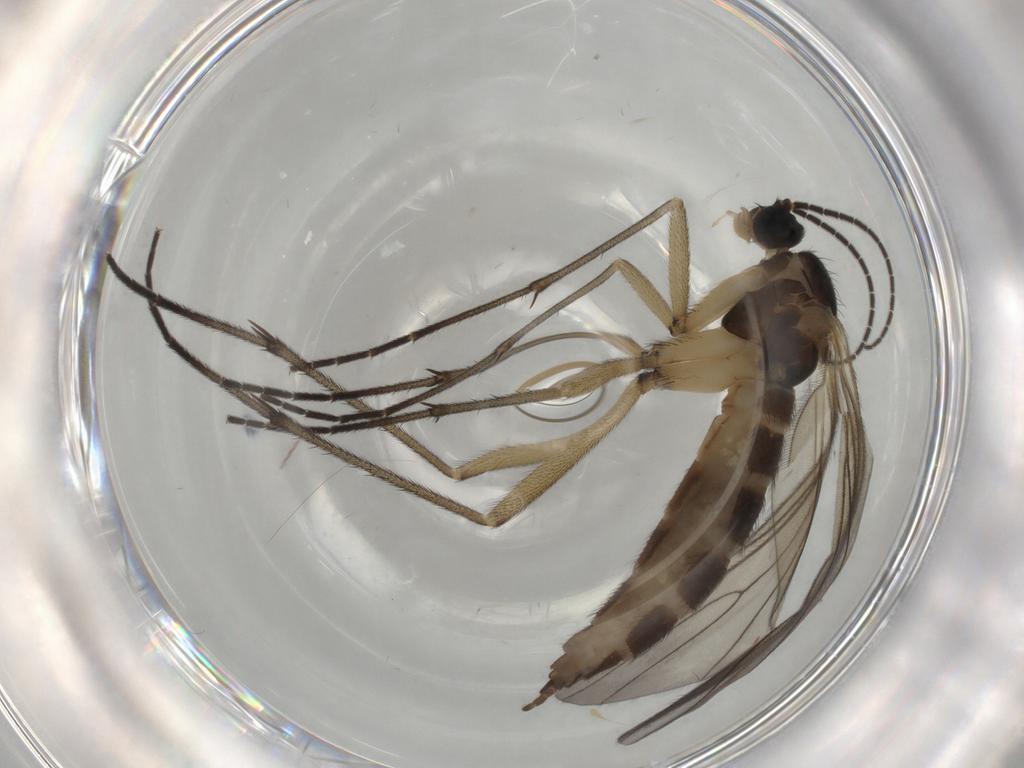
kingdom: Animalia
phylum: Arthropoda
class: Insecta
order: Diptera
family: Sciaridae
